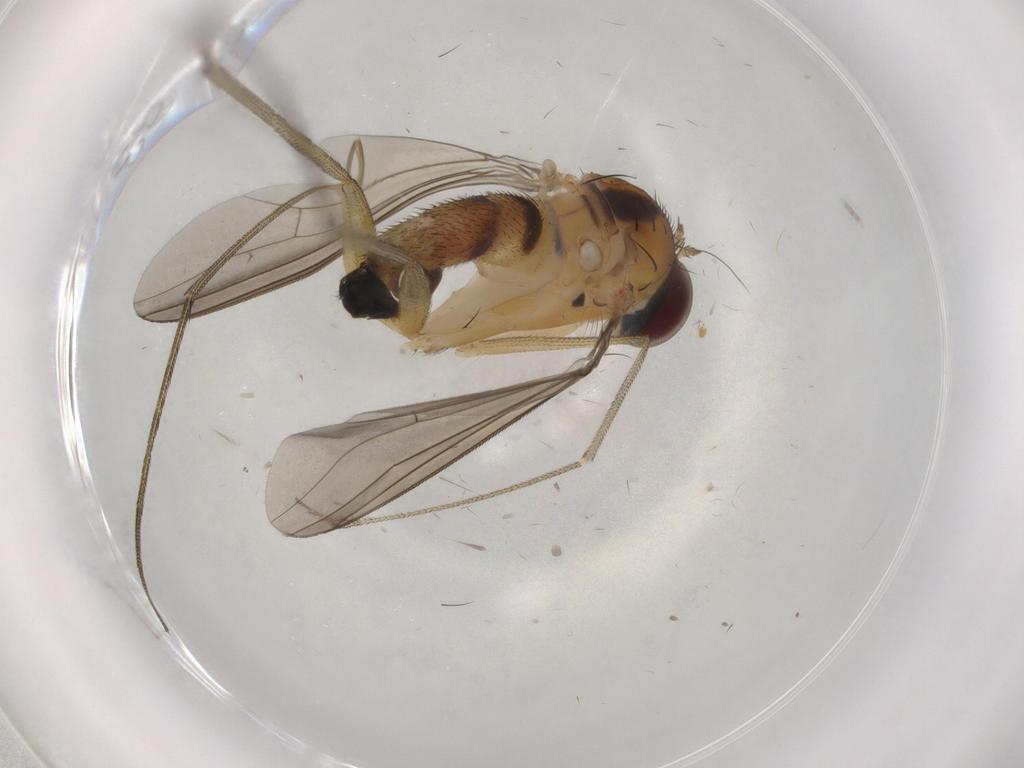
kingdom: Animalia
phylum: Arthropoda
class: Insecta
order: Diptera
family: Dolichopodidae
